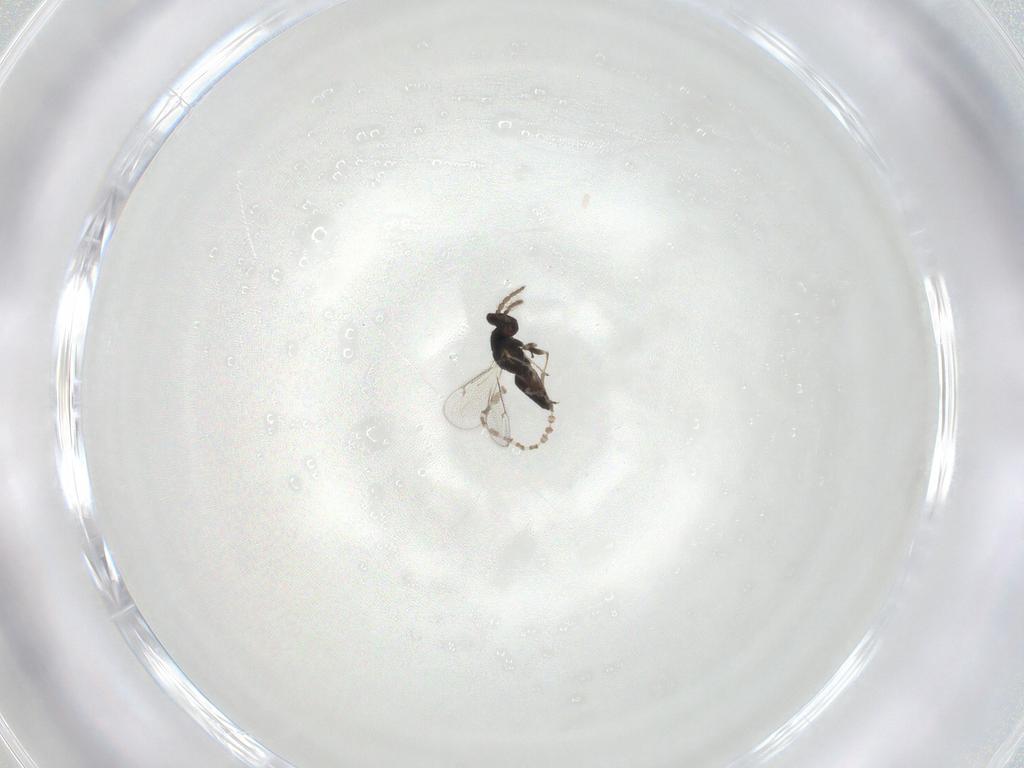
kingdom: Animalia
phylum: Arthropoda
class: Insecta
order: Hymenoptera
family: Eulophidae
